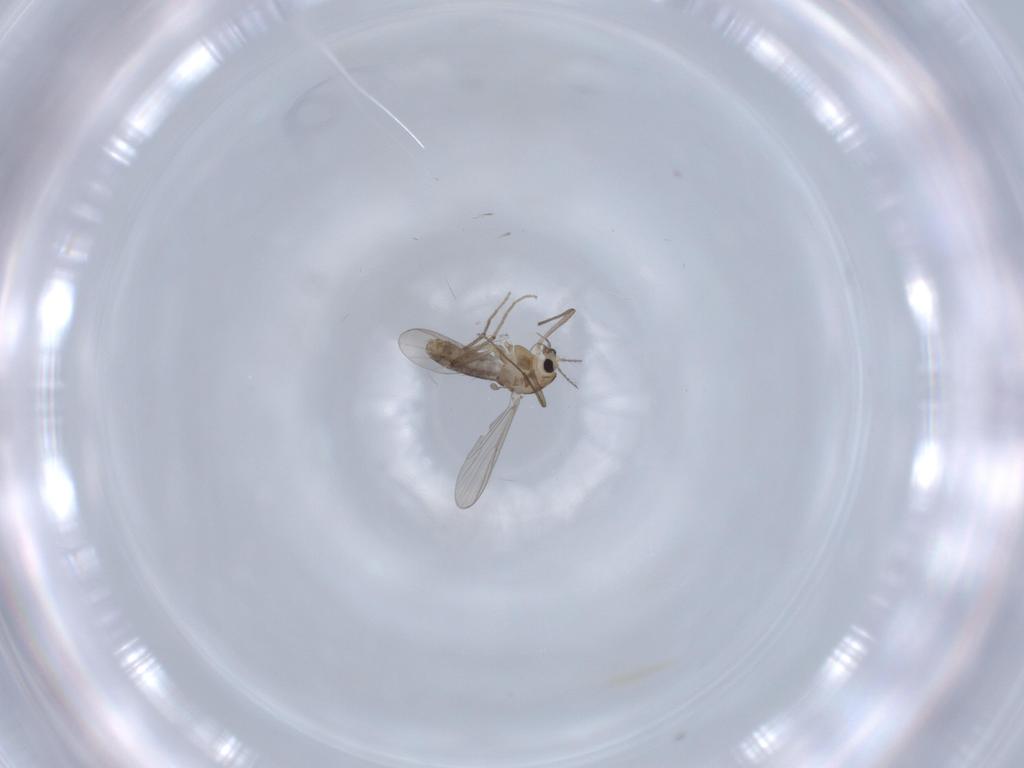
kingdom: Animalia
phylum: Arthropoda
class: Insecta
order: Diptera
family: Chironomidae
